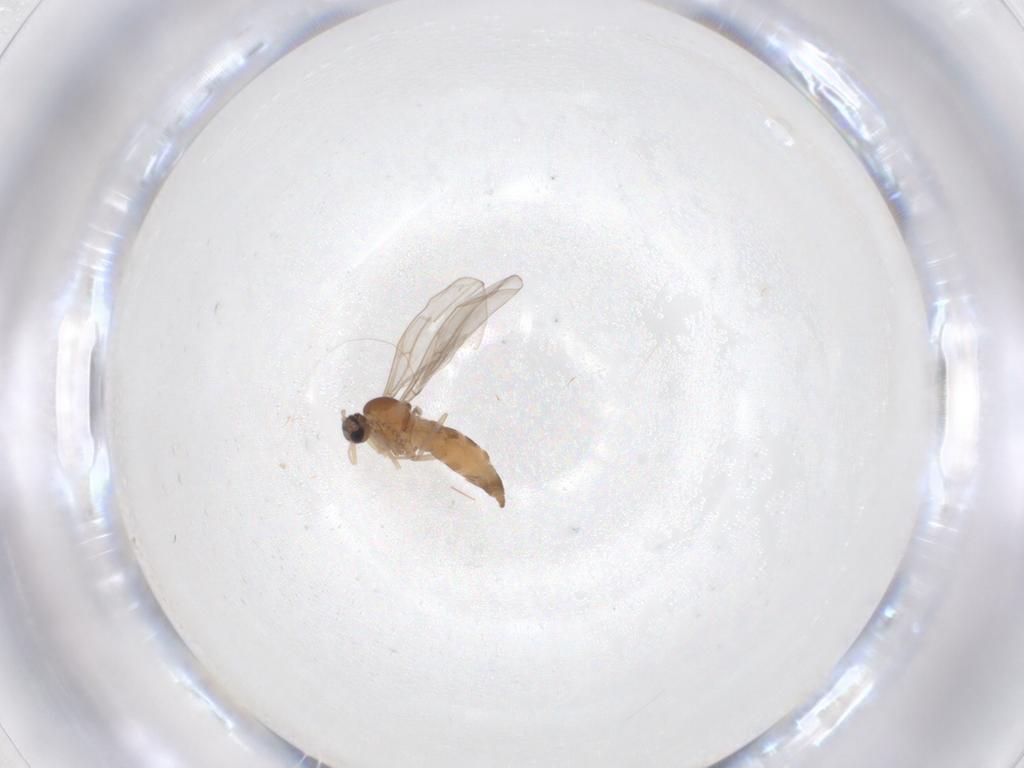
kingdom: Animalia
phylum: Arthropoda
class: Insecta
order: Diptera
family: Cecidomyiidae
